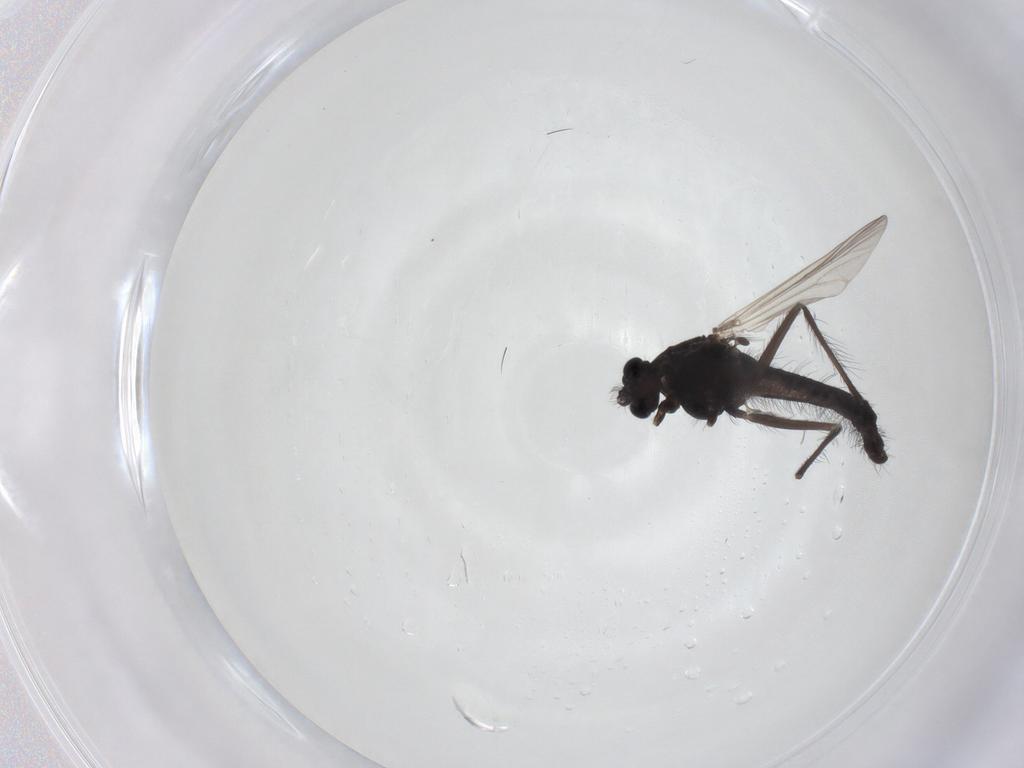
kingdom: Animalia
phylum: Arthropoda
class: Insecta
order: Diptera
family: Chironomidae
